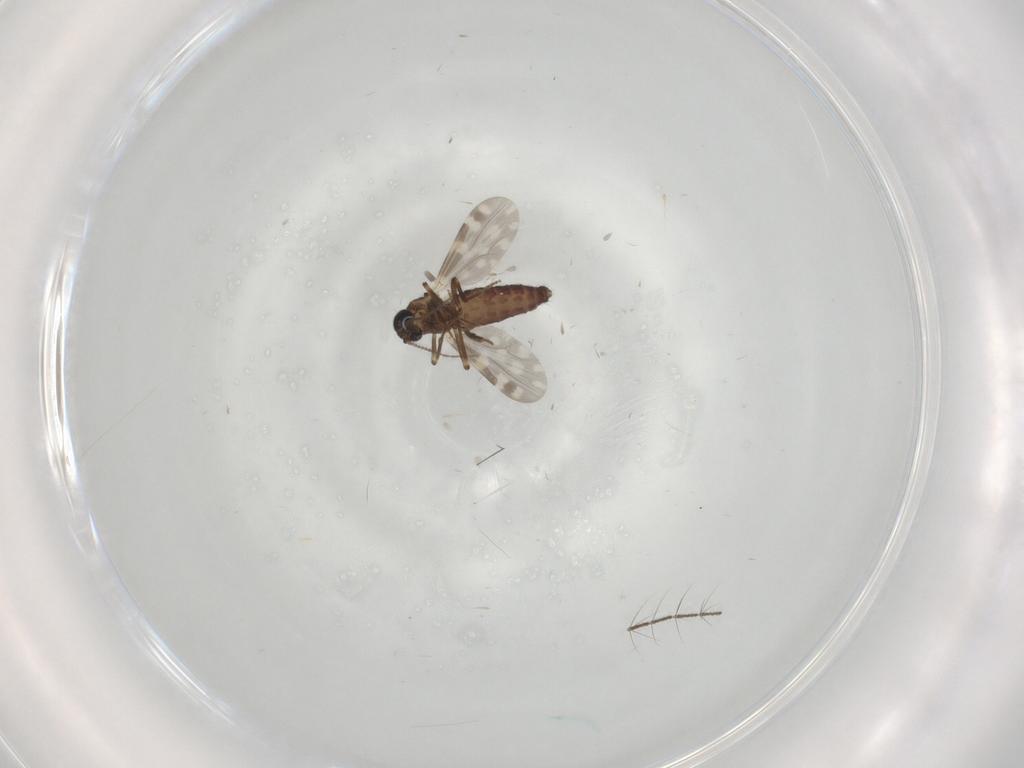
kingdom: Animalia
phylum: Arthropoda
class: Insecta
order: Diptera
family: Ceratopogonidae
